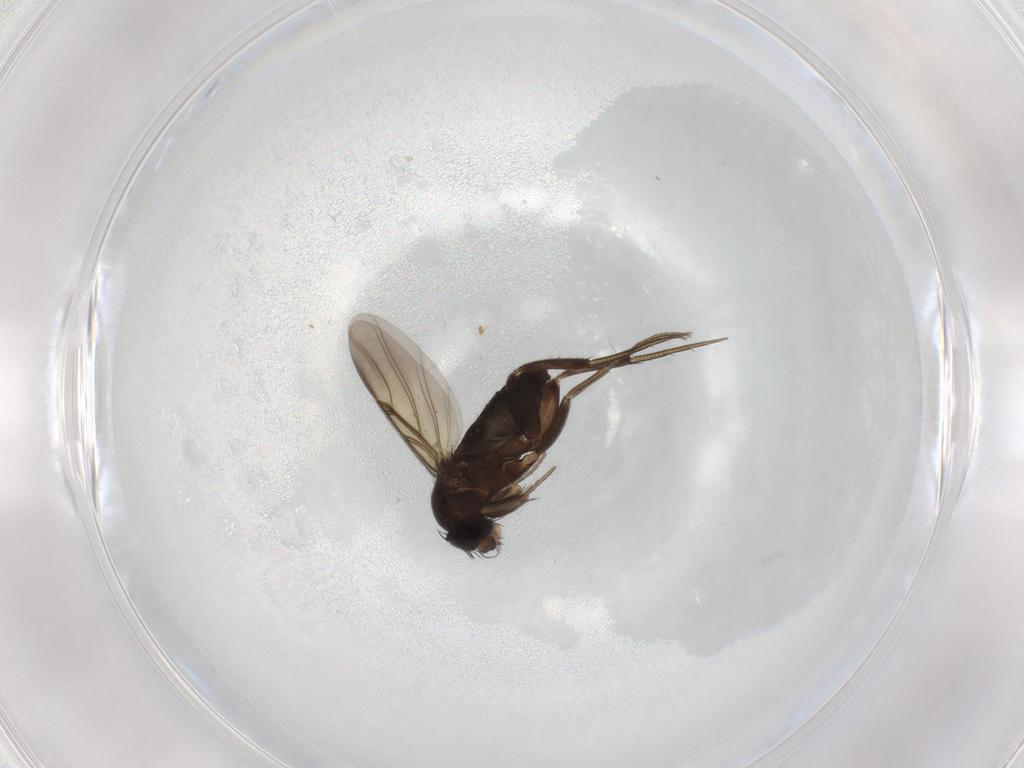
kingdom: Animalia
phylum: Arthropoda
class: Insecta
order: Diptera
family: Phoridae
